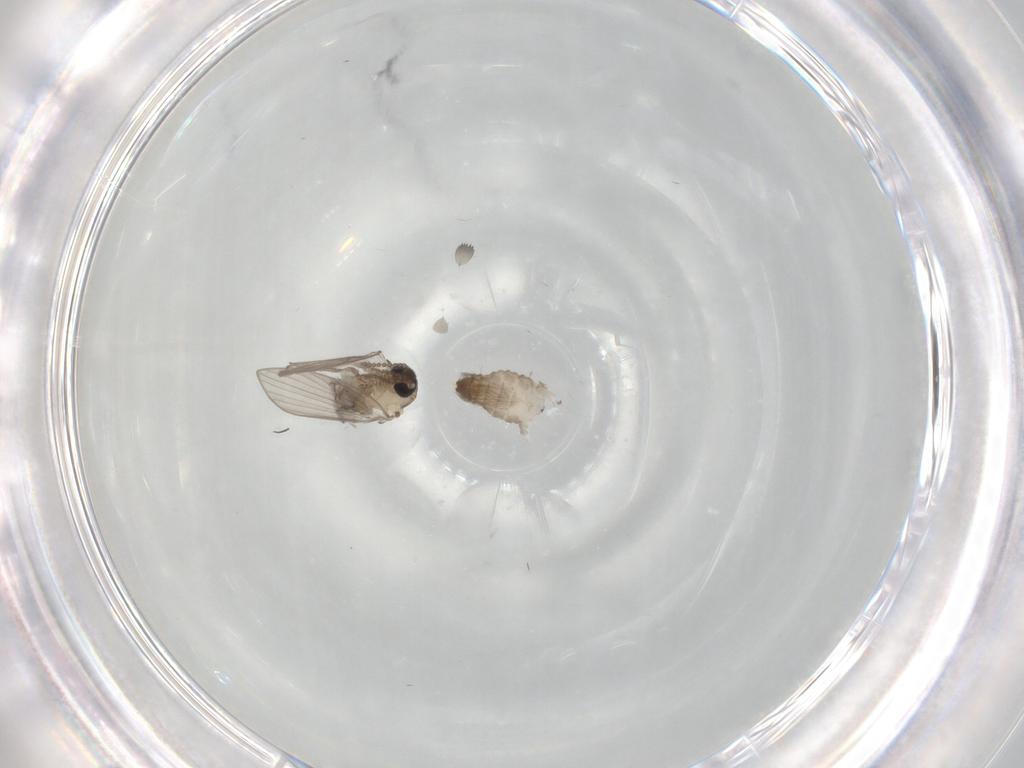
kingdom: Animalia
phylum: Arthropoda
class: Insecta
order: Diptera
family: Psychodidae
